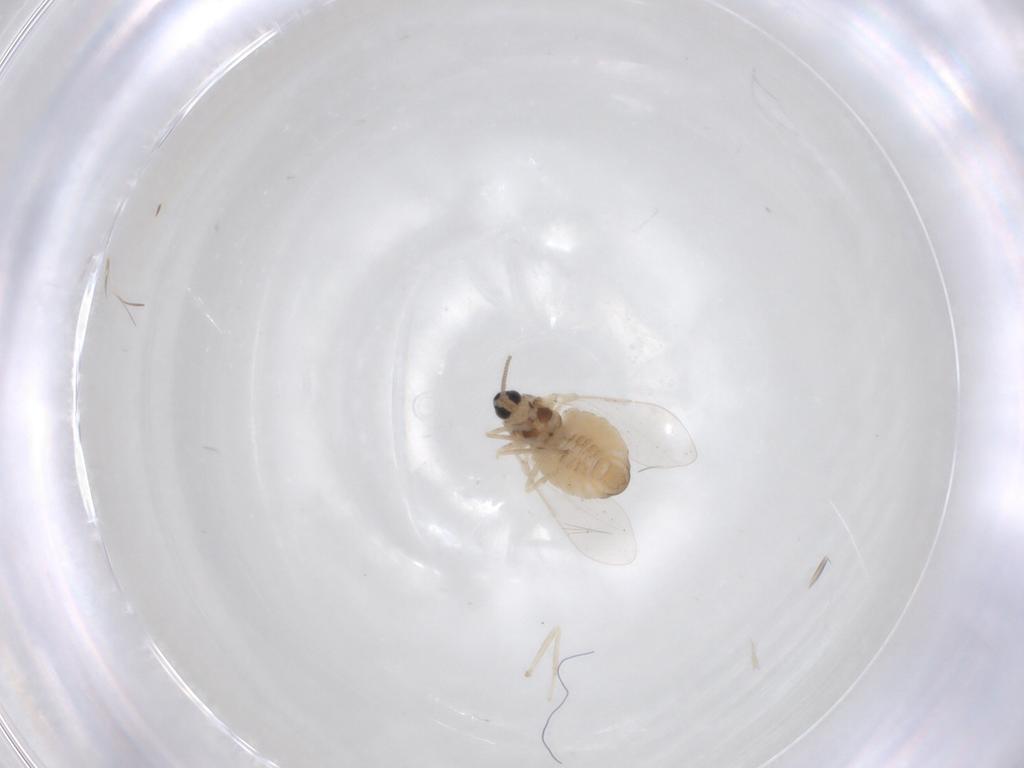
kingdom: Animalia
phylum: Arthropoda
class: Insecta
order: Diptera
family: Cecidomyiidae
